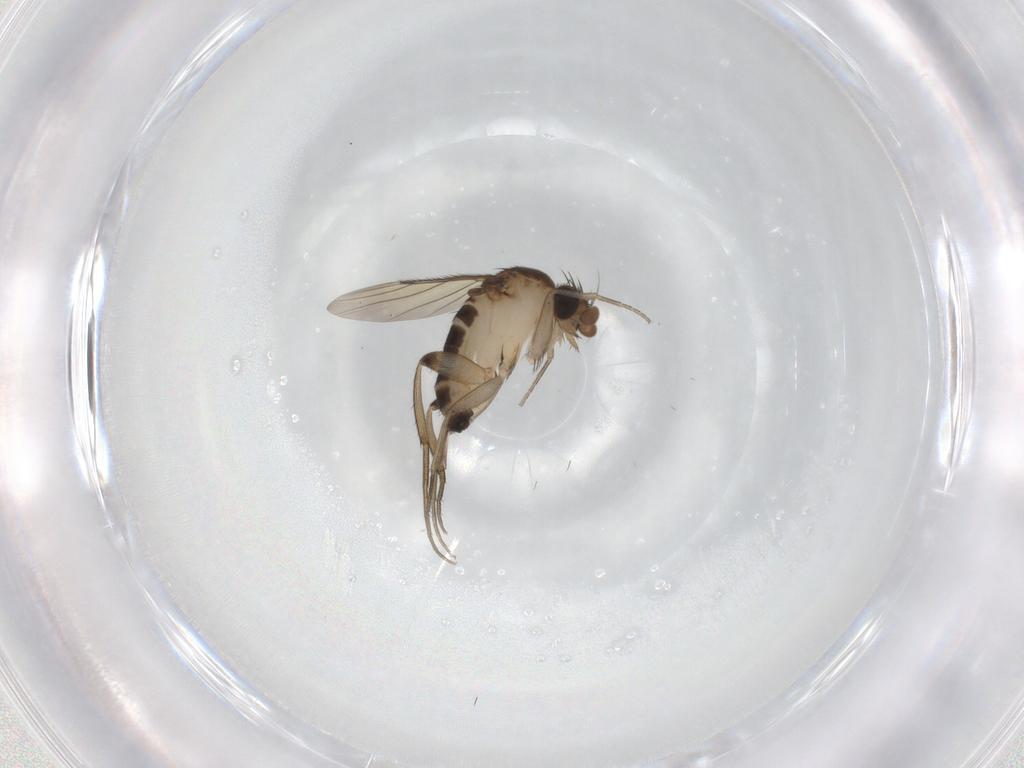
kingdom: Animalia
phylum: Arthropoda
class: Insecta
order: Diptera
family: Phoridae
